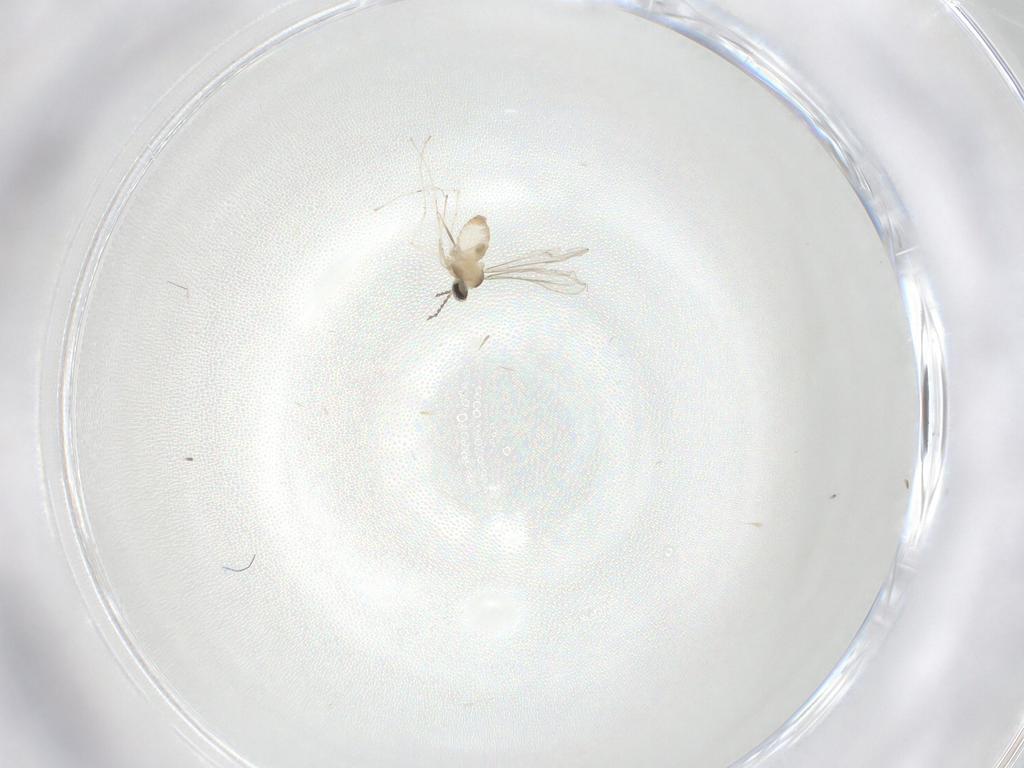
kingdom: Animalia
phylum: Arthropoda
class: Insecta
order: Diptera
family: Cecidomyiidae
